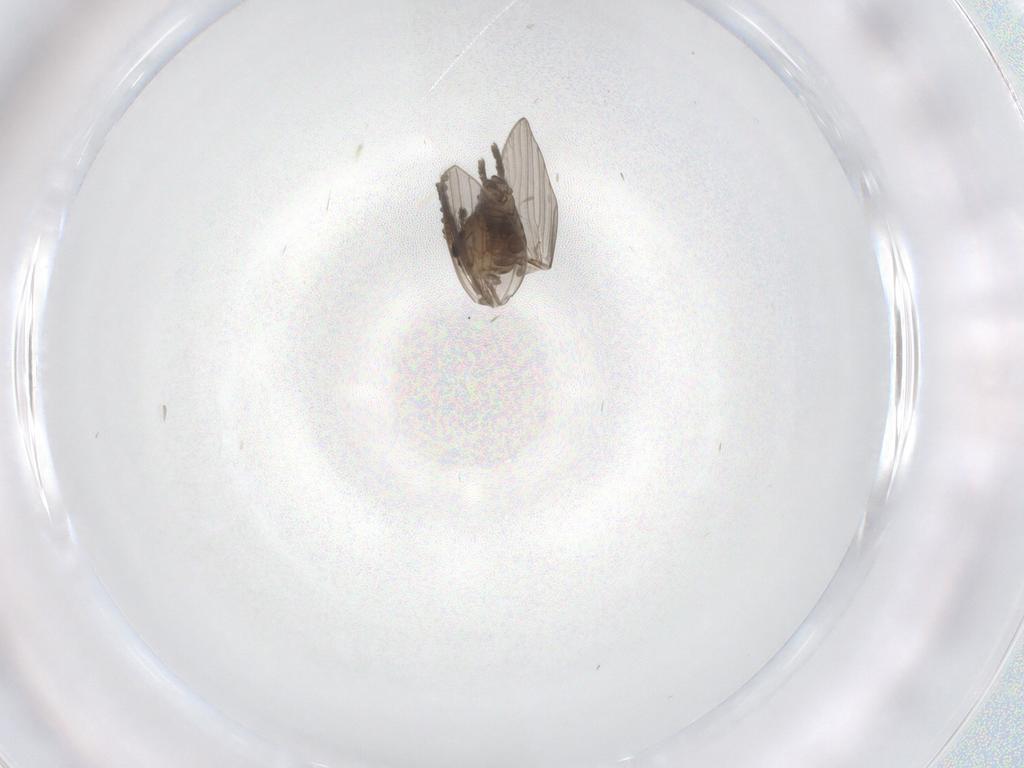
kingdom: Animalia
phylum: Arthropoda
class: Insecta
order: Diptera
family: Psychodidae
